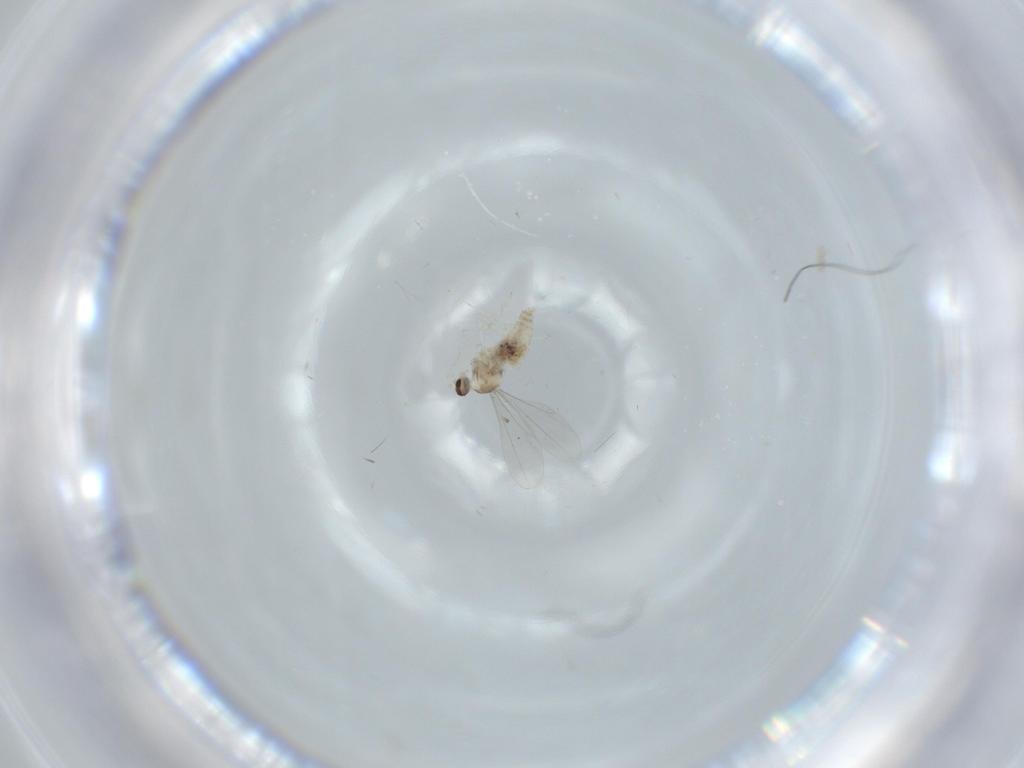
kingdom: Animalia
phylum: Arthropoda
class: Insecta
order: Diptera
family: Cecidomyiidae
